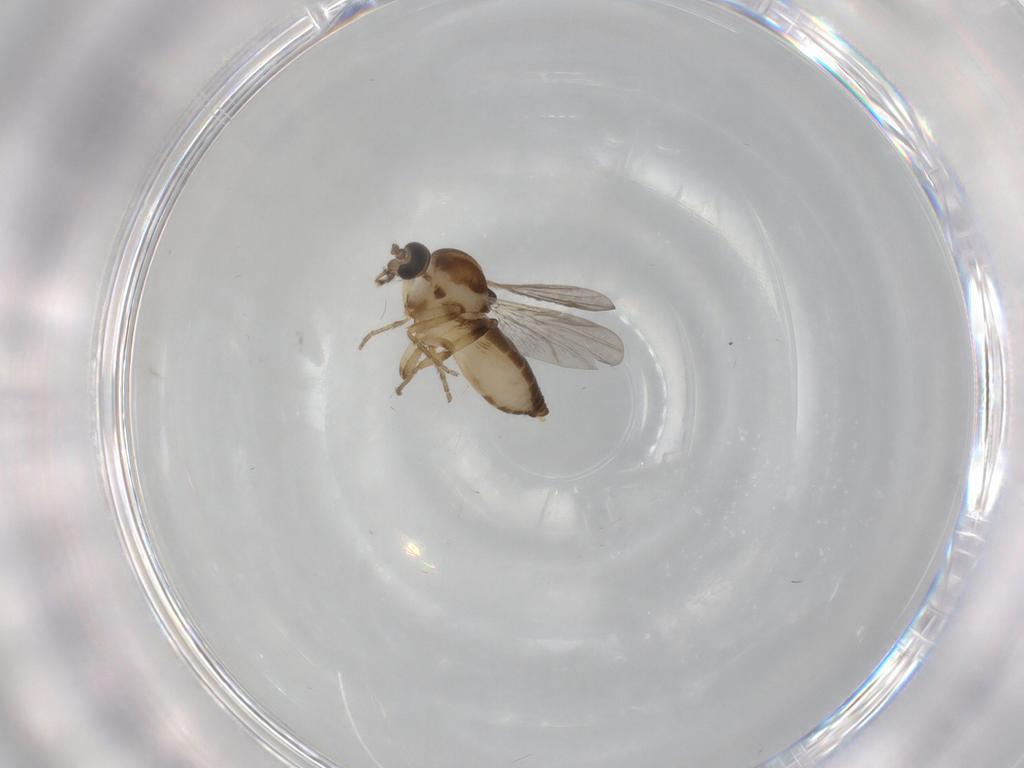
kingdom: Animalia
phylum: Arthropoda
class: Insecta
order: Diptera
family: Ceratopogonidae
